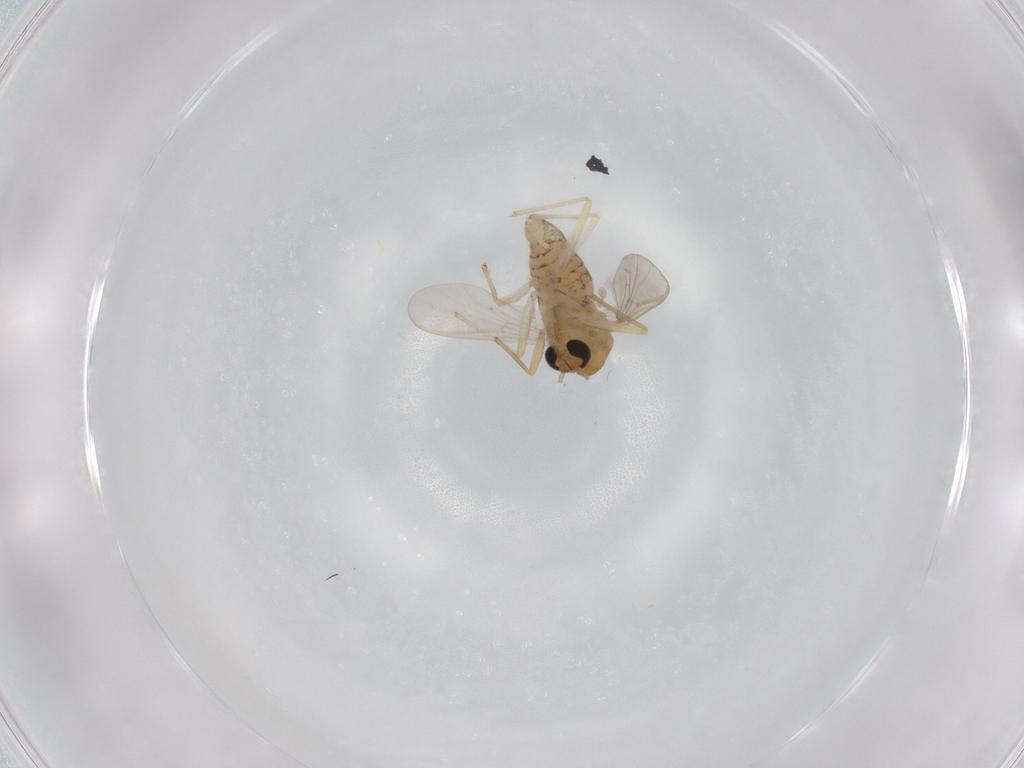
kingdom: Animalia
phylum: Arthropoda
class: Insecta
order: Diptera
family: Chironomidae
